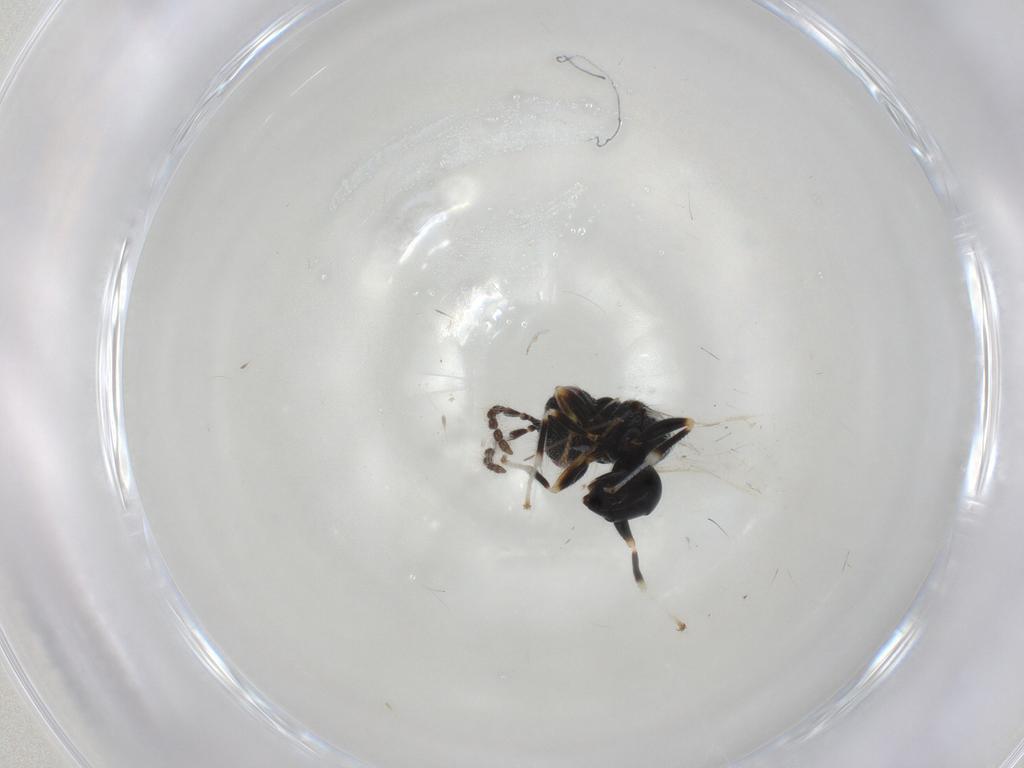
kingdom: Animalia
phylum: Arthropoda
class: Insecta
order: Hymenoptera
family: Eurytomidae
